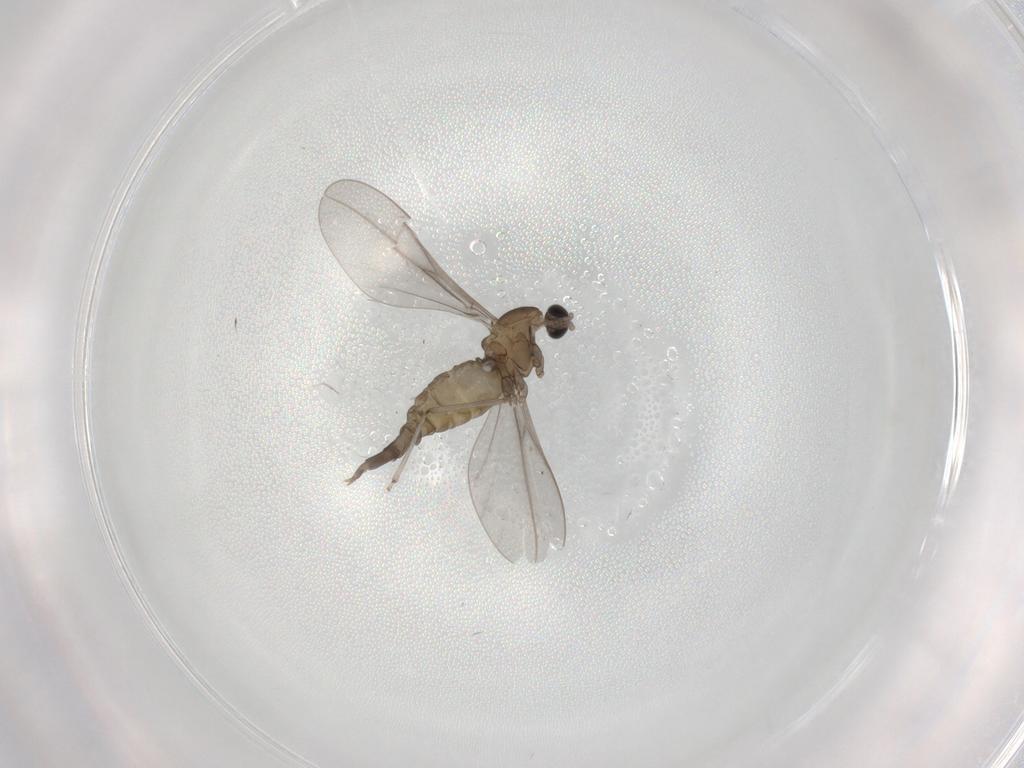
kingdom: Animalia
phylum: Arthropoda
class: Insecta
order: Diptera
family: Cecidomyiidae
